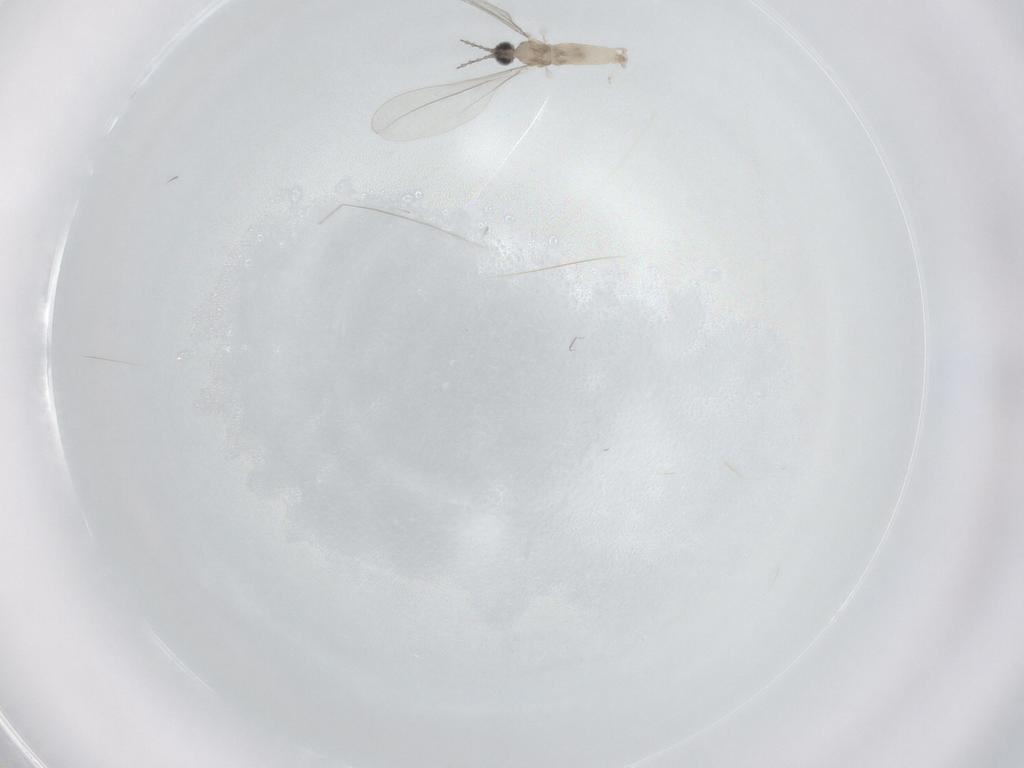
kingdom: Animalia
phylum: Arthropoda
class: Insecta
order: Diptera
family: Cecidomyiidae
